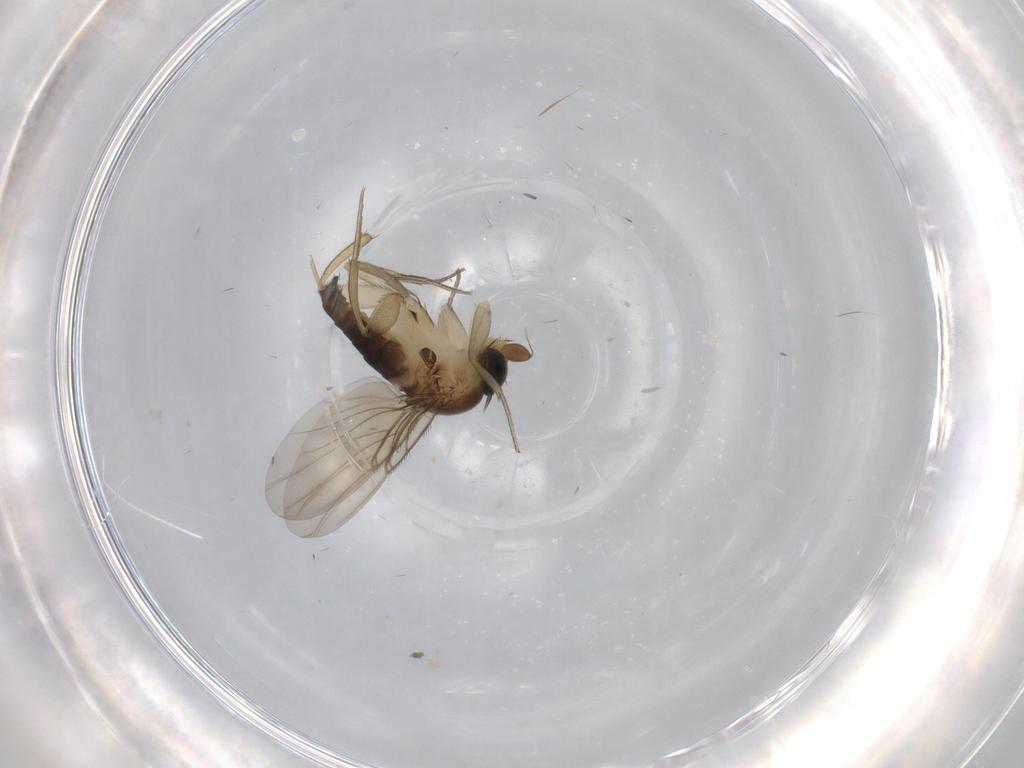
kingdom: Animalia
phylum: Arthropoda
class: Insecta
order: Diptera
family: Phoridae
